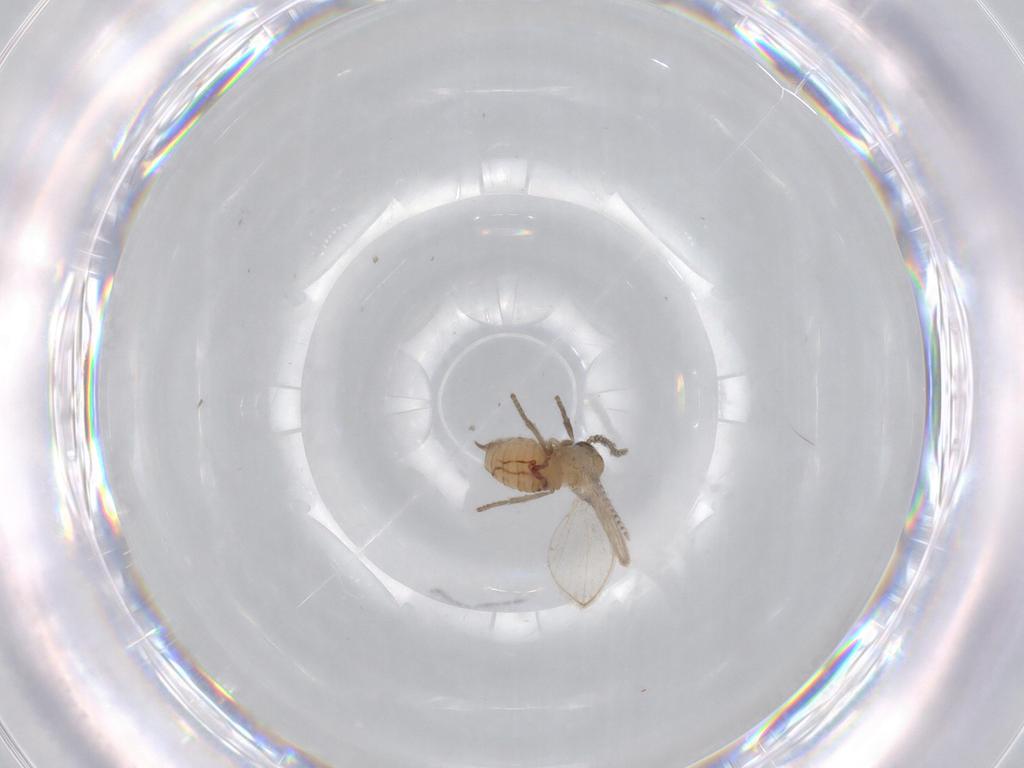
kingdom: Animalia
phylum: Arthropoda
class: Insecta
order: Diptera
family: Psychodidae
